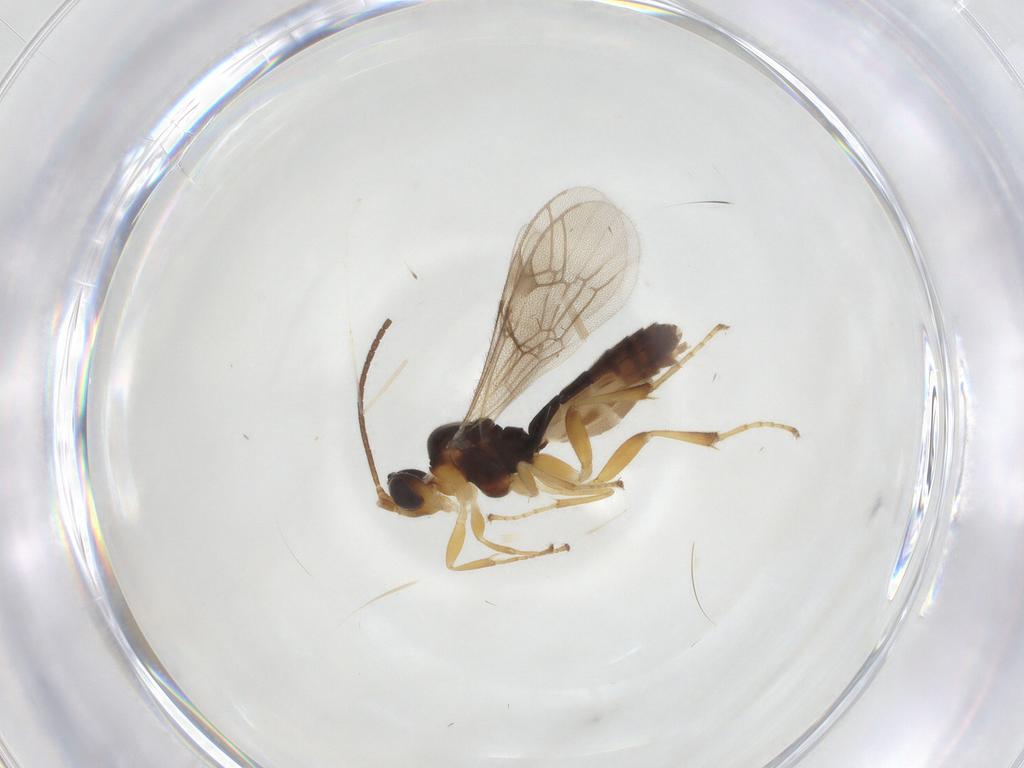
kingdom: Animalia
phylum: Arthropoda
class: Insecta
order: Hymenoptera
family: Ichneumonidae
